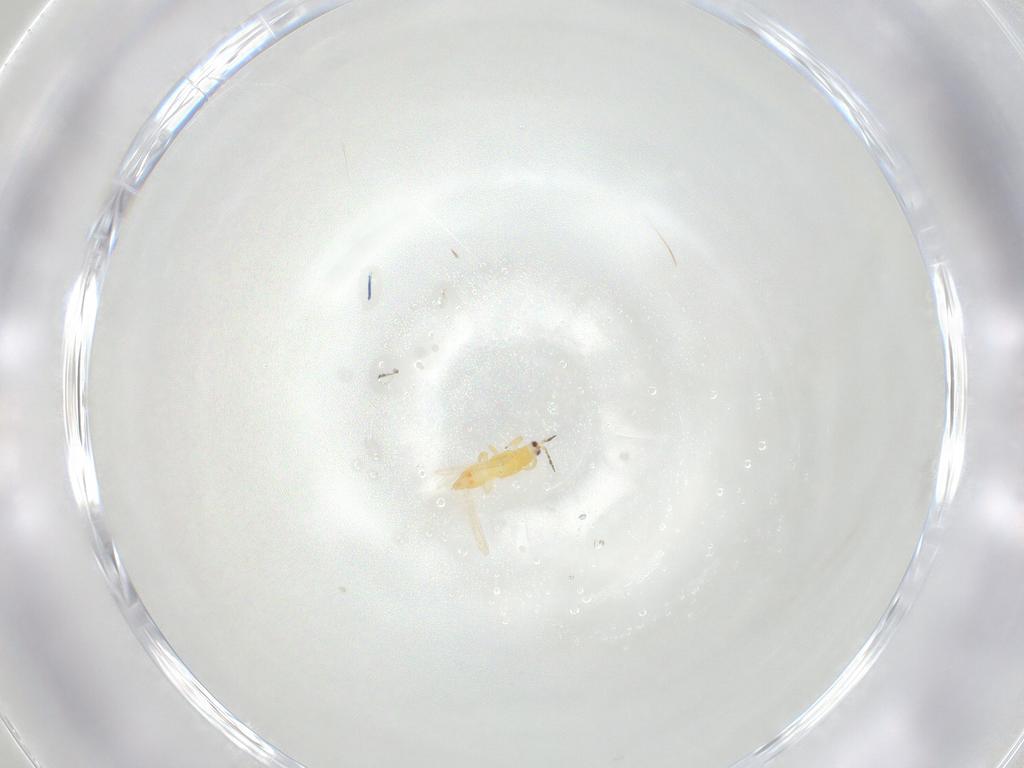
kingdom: Animalia
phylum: Arthropoda
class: Insecta
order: Thysanoptera
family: Melanthripidae
